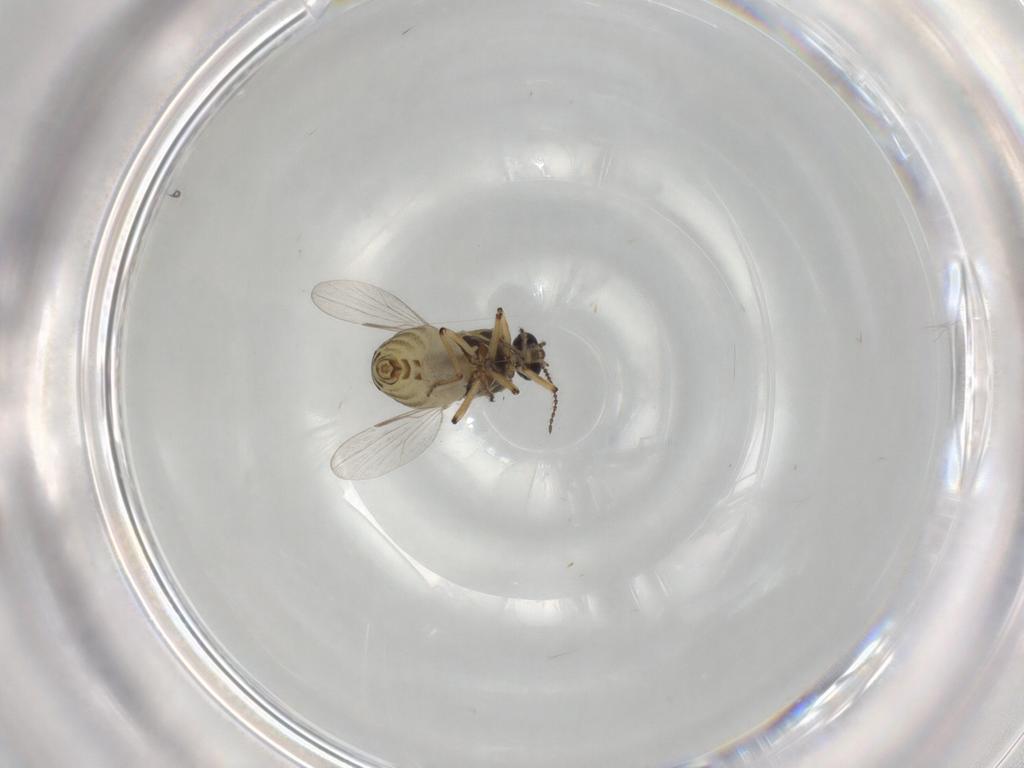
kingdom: Animalia
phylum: Arthropoda
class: Insecta
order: Diptera
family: Ceratopogonidae
